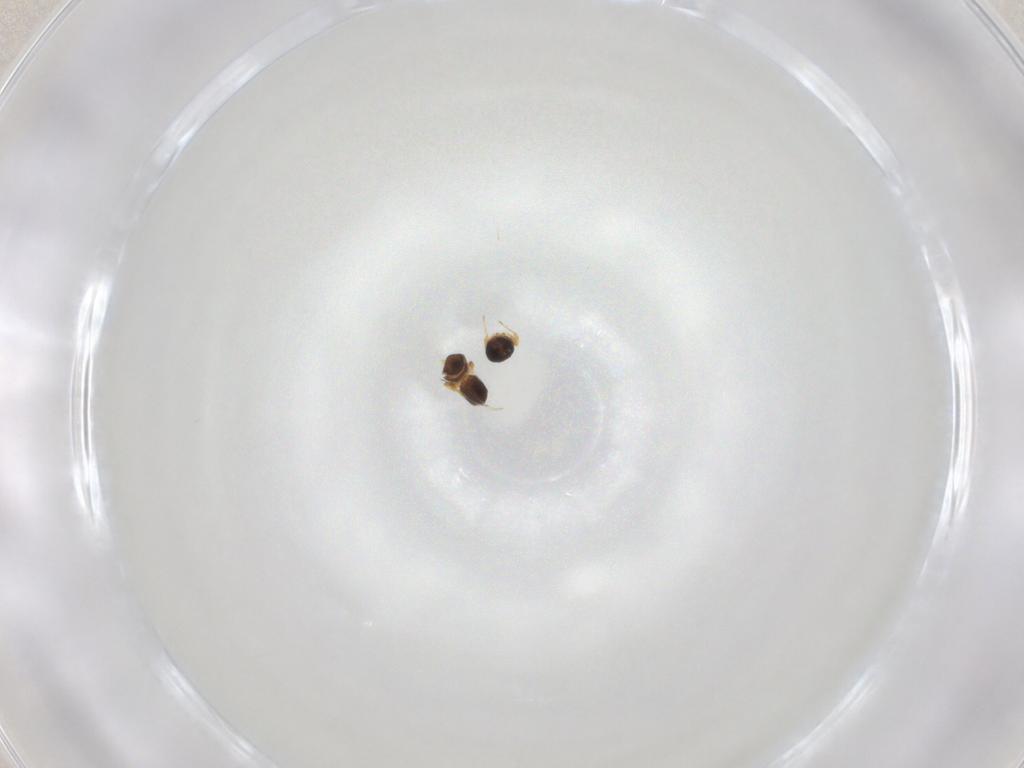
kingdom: Animalia
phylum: Arthropoda
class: Insecta
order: Hymenoptera
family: Platygastridae
